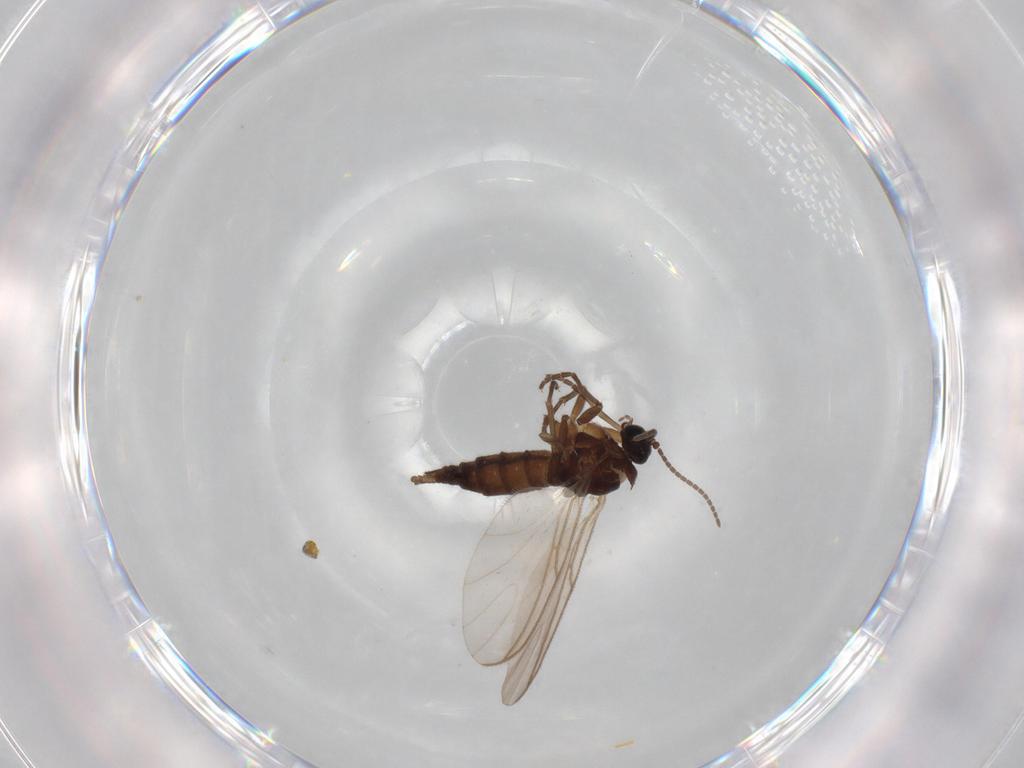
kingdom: Animalia
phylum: Arthropoda
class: Insecta
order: Diptera
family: Sciaridae
